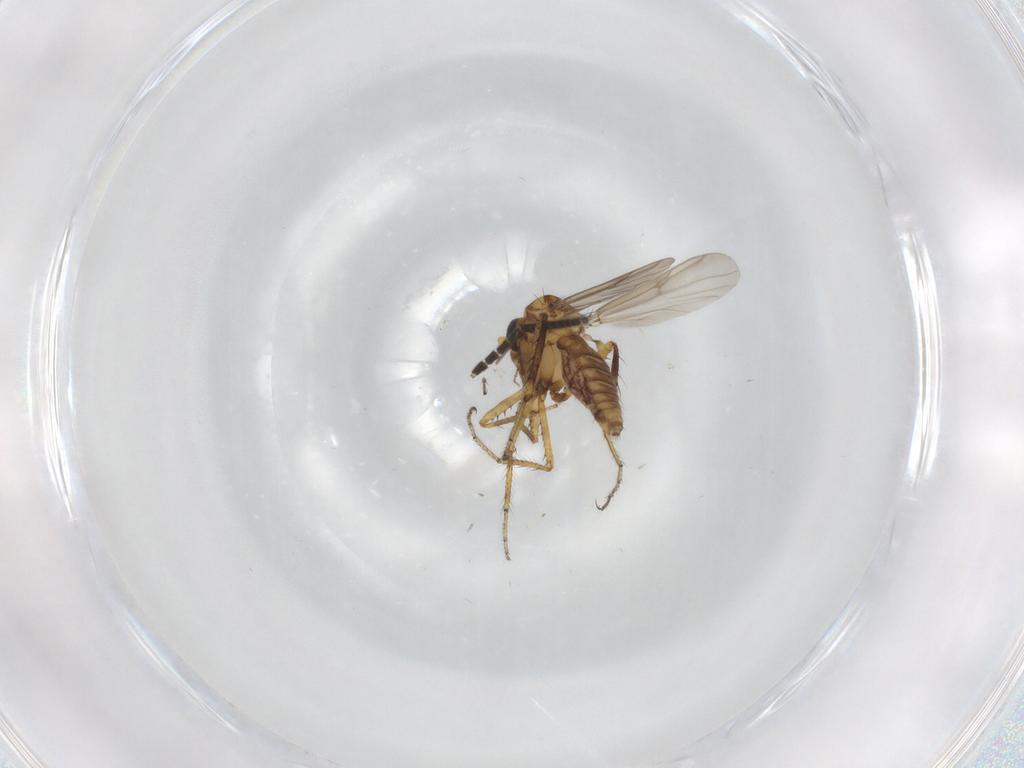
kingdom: Animalia
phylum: Arthropoda
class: Insecta
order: Diptera
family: Sciaridae
